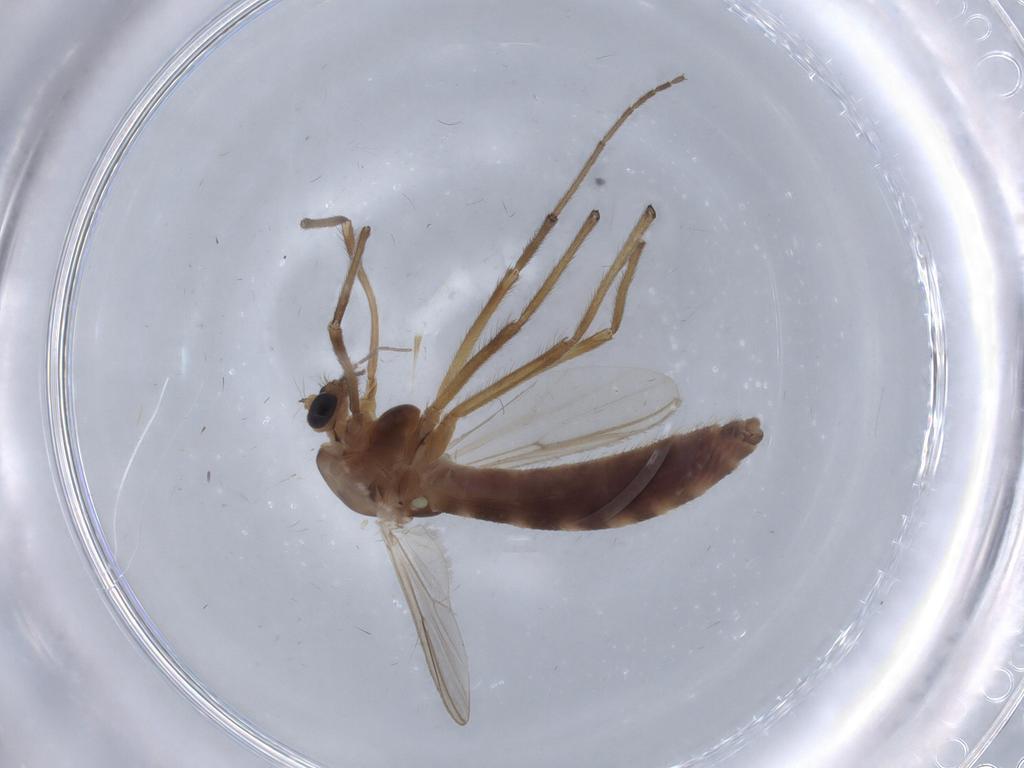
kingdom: Animalia
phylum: Arthropoda
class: Insecta
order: Diptera
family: Chironomidae
